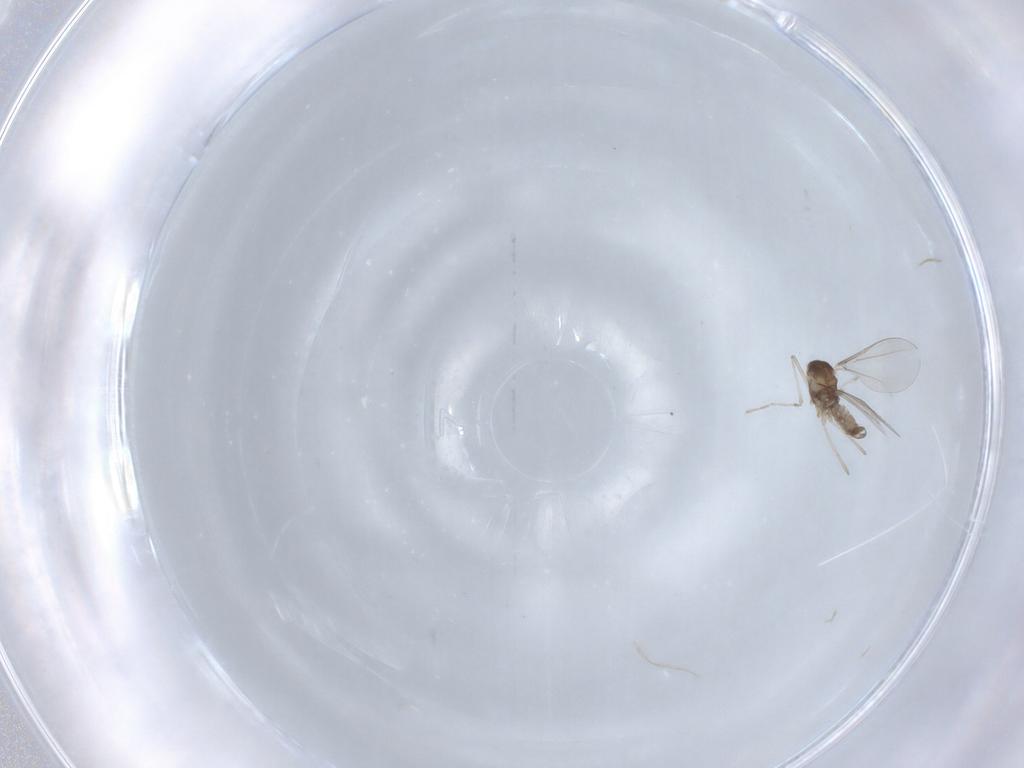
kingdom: Animalia
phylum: Arthropoda
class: Insecta
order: Diptera
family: Cecidomyiidae
